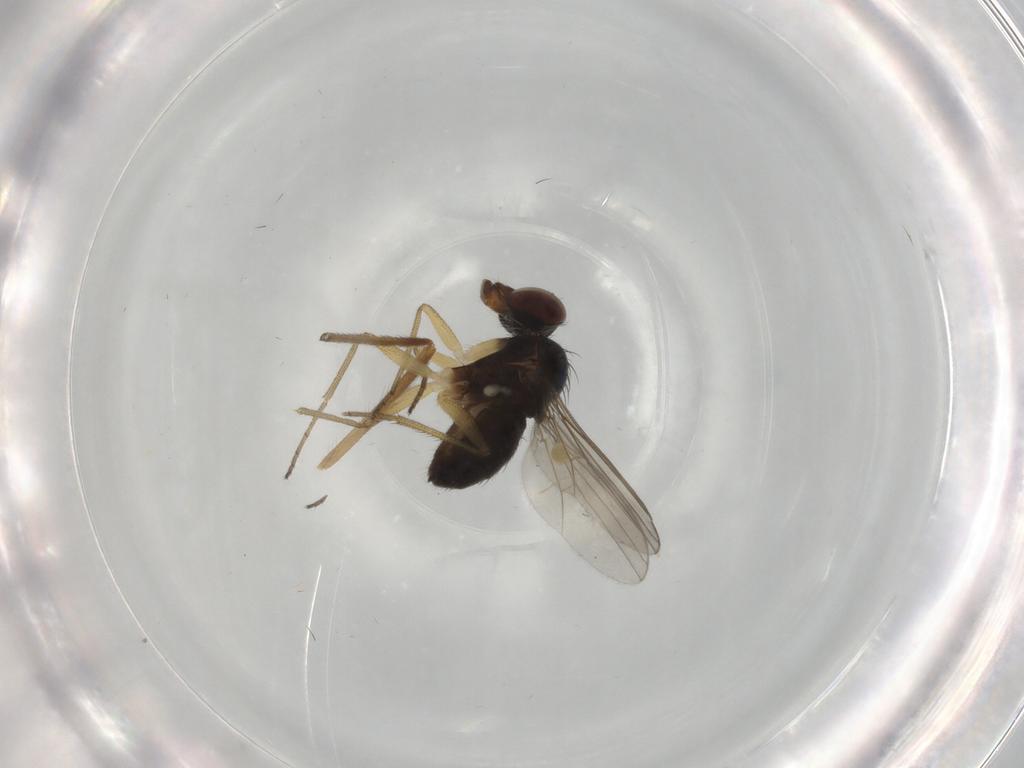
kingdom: Animalia
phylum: Arthropoda
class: Insecta
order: Diptera
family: Dolichopodidae
